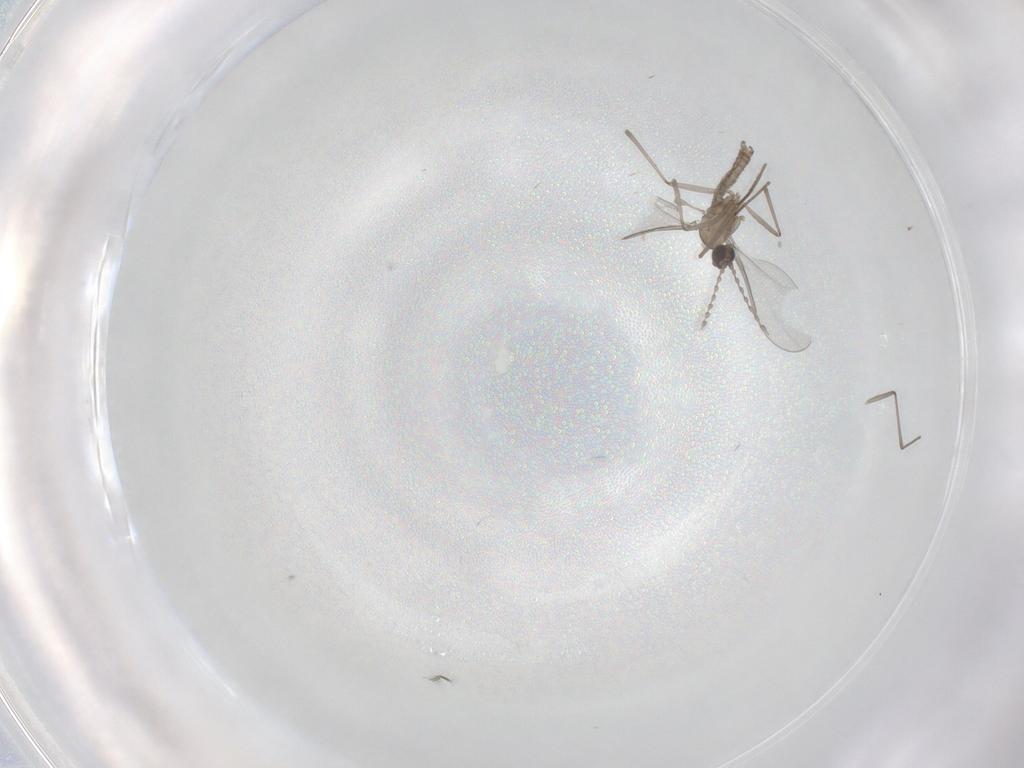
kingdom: Animalia
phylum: Arthropoda
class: Insecta
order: Diptera
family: Cecidomyiidae
